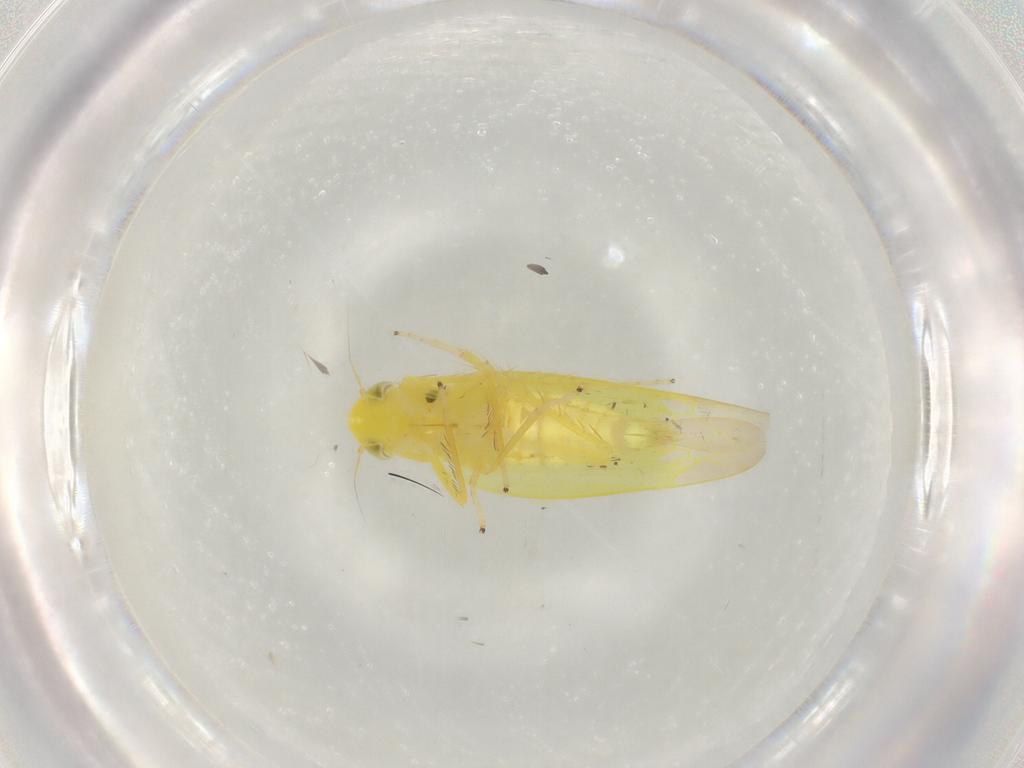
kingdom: Animalia
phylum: Arthropoda
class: Insecta
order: Hemiptera
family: Cicadellidae
